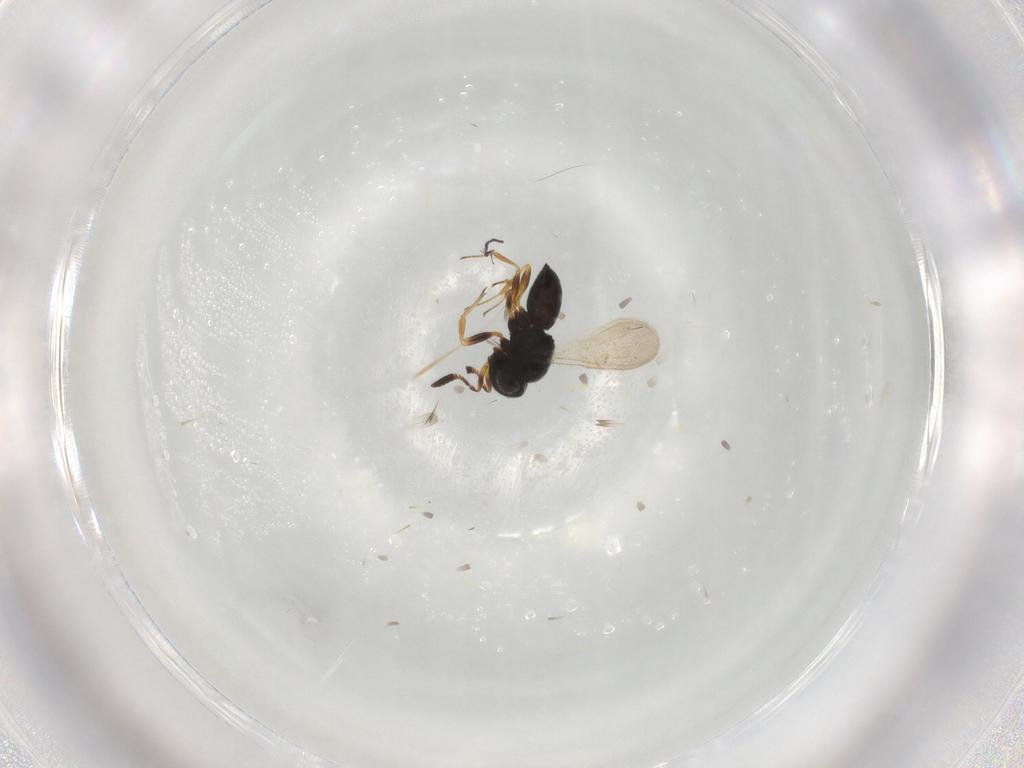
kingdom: Animalia
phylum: Arthropoda
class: Insecta
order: Hymenoptera
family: Scelionidae
